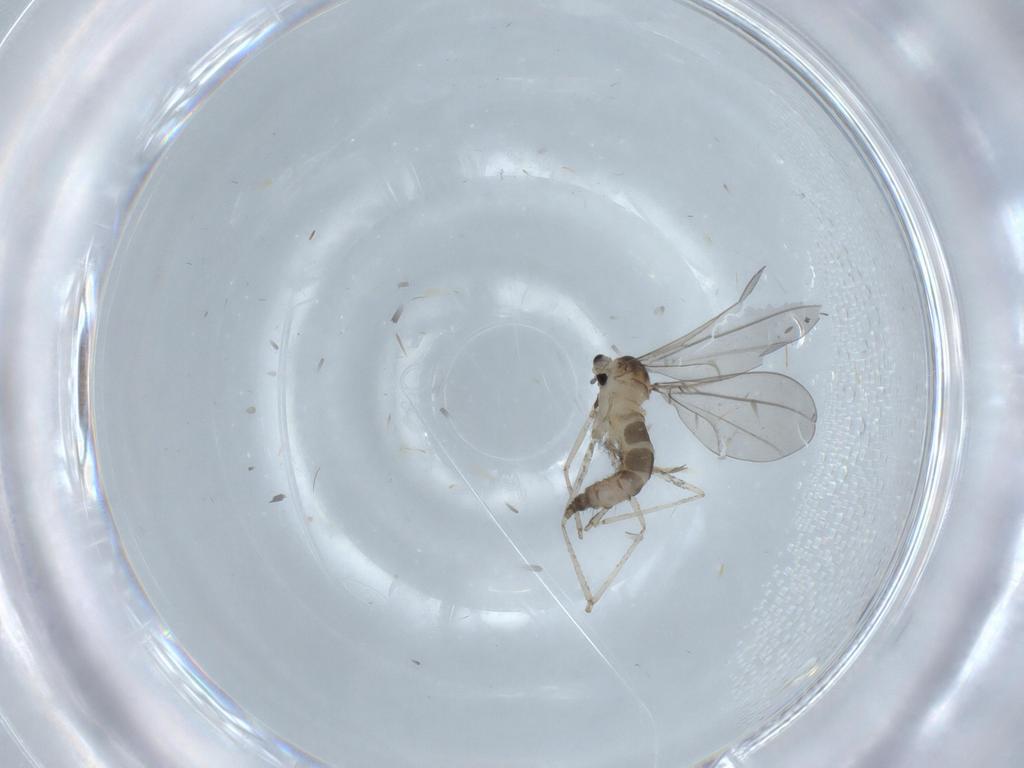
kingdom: Animalia
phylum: Arthropoda
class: Insecta
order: Diptera
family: Cecidomyiidae
